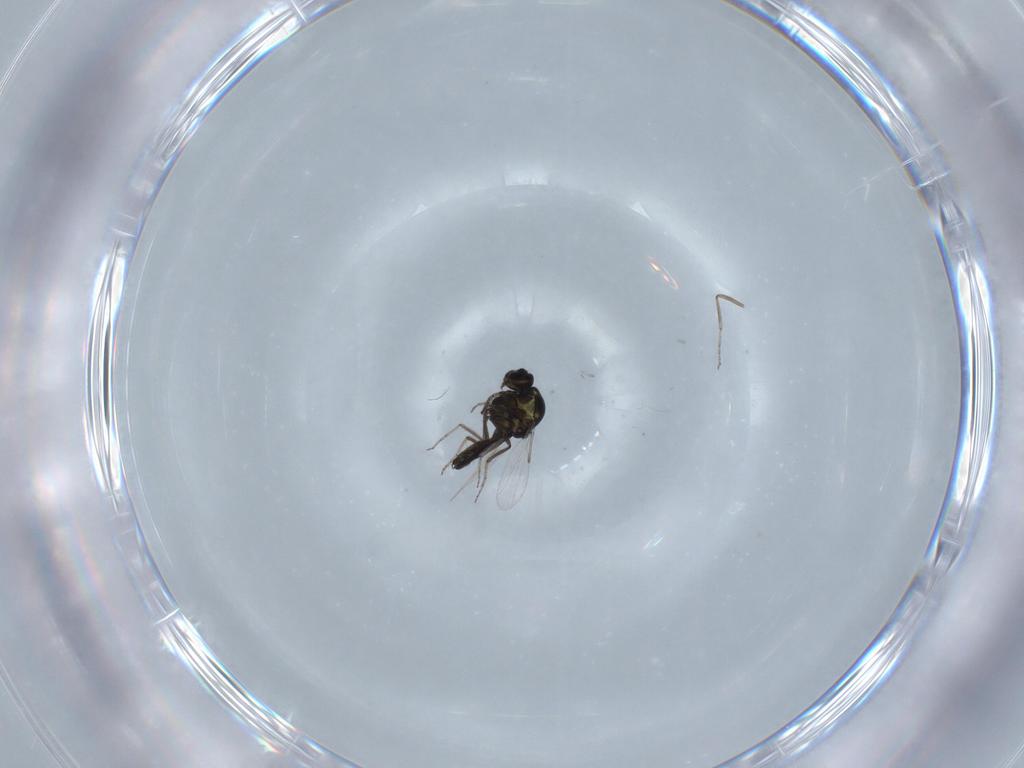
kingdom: Animalia
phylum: Arthropoda
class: Insecta
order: Diptera
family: Ceratopogonidae
